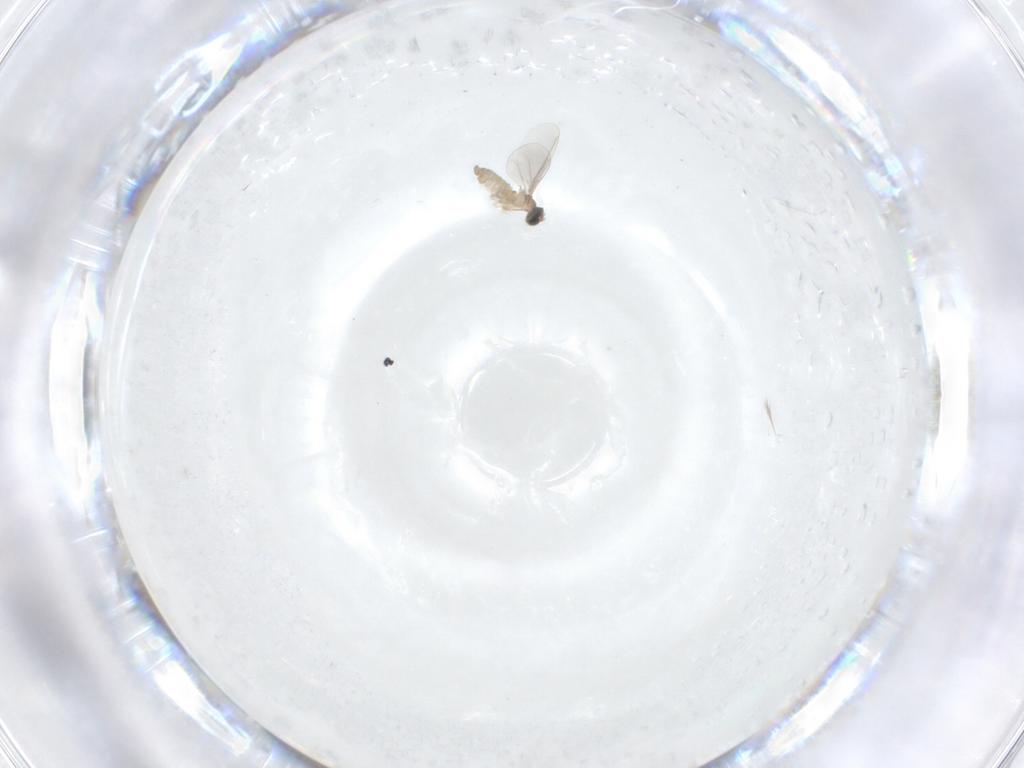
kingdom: Animalia
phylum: Arthropoda
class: Insecta
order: Diptera
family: Cecidomyiidae
